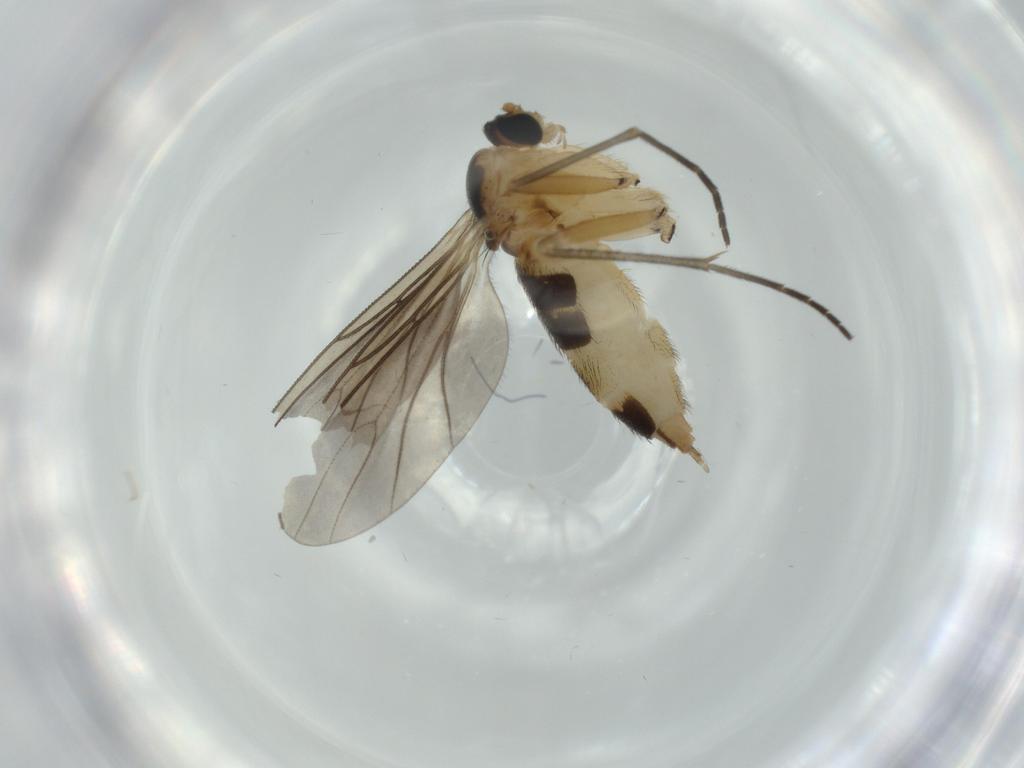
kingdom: Animalia
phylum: Arthropoda
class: Insecta
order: Diptera
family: Sciaridae
